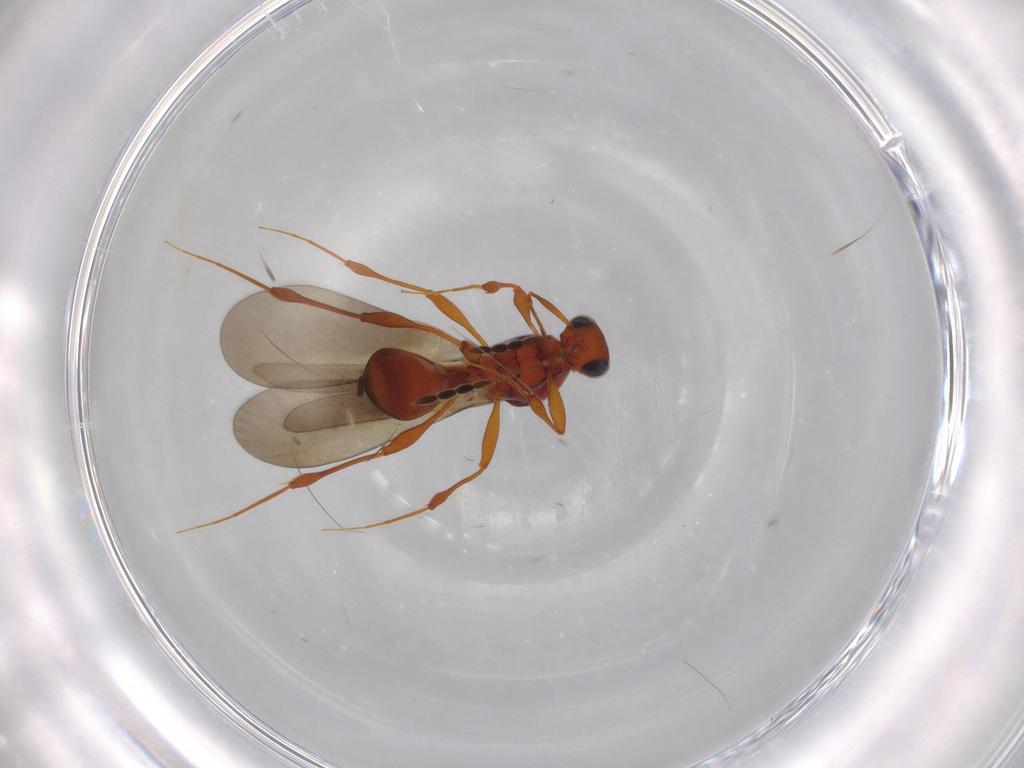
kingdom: Animalia
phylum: Arthropoda
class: Insecta
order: Hymenoptera
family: Platygastridae
